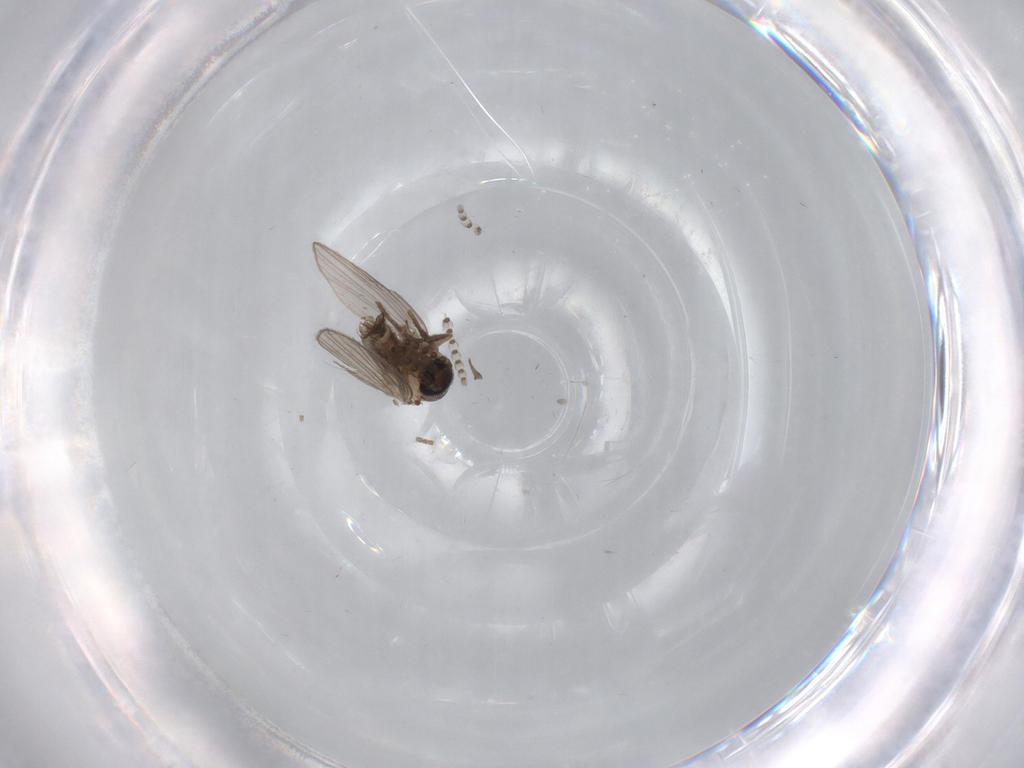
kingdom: Animalia
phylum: Arthropoda
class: Insecta
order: Diptera
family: Psychodidae
